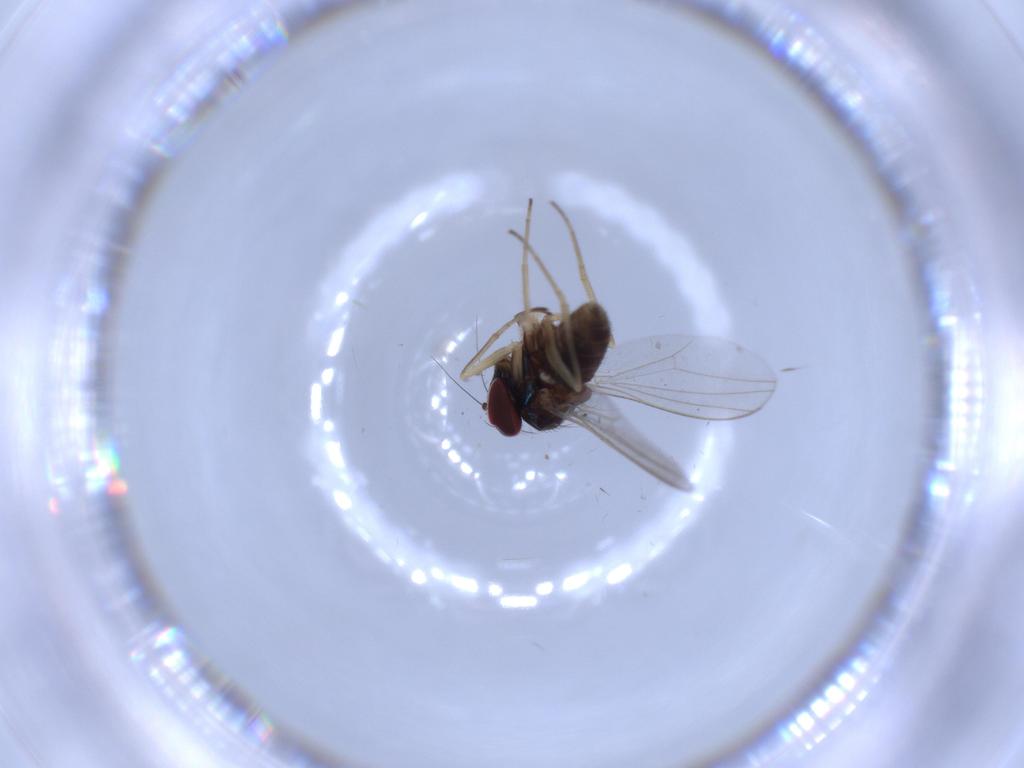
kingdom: Animalia
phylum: Arthropoda
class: Insecta
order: Diptera
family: Dolichopodidae
